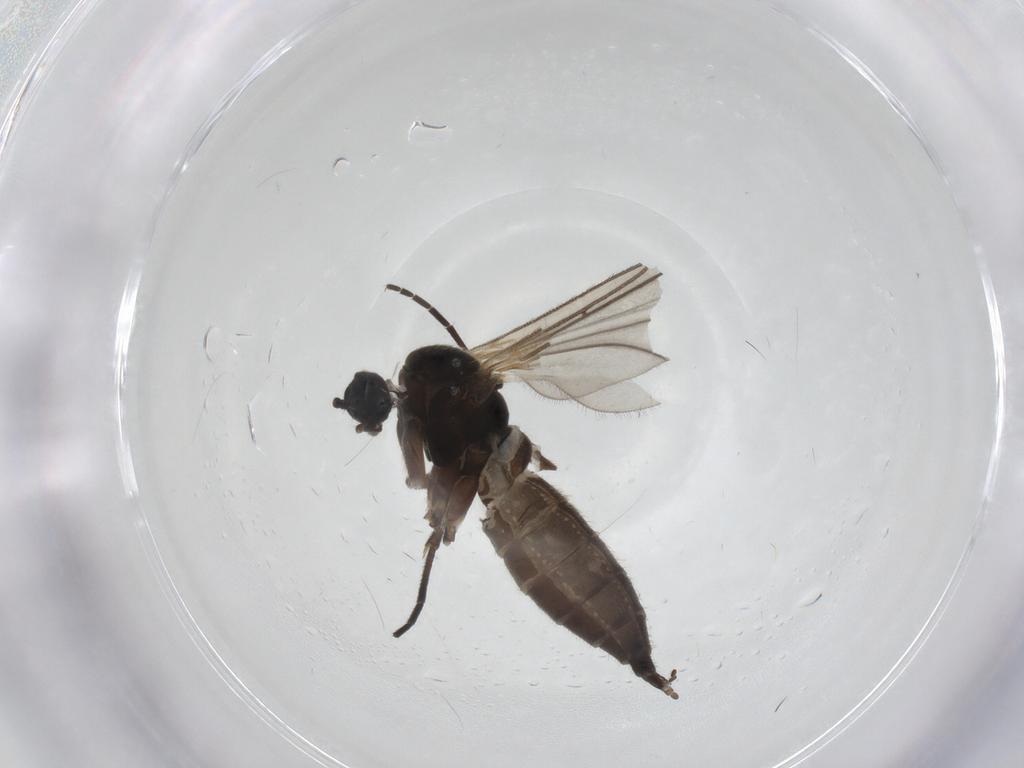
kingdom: Animalia
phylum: Arthropoda
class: Insecta
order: Diptera
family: Sciaridae
